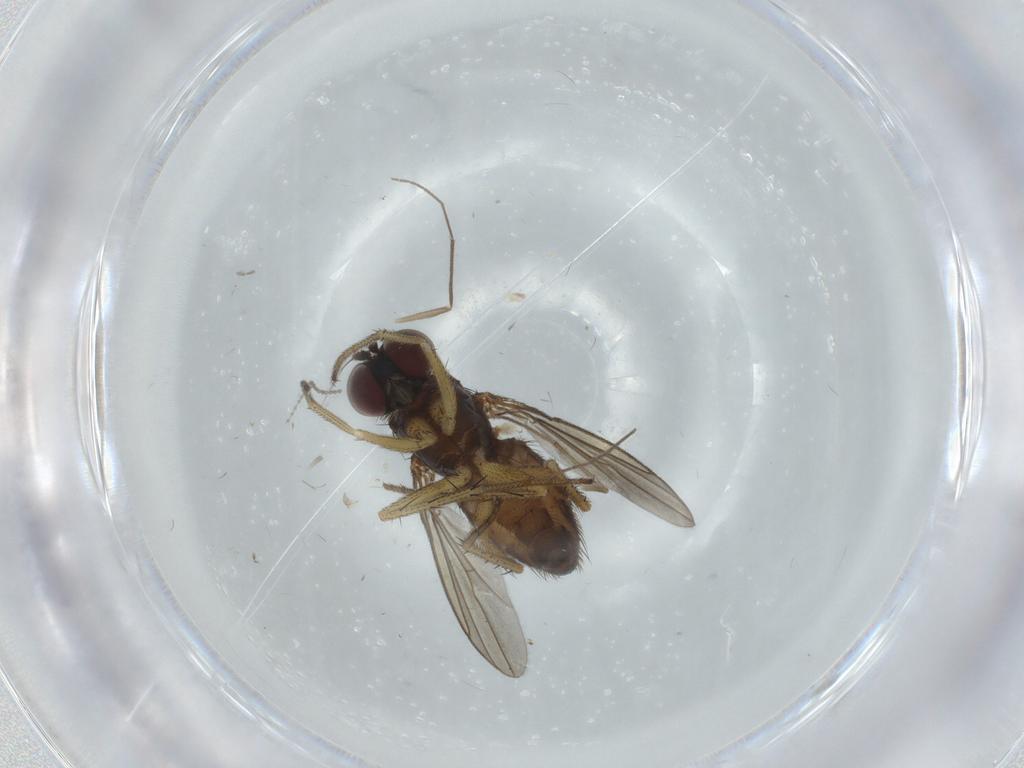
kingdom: Animalia
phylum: Arthropoda
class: Insecta
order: Diptera
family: Dolichopodidae
